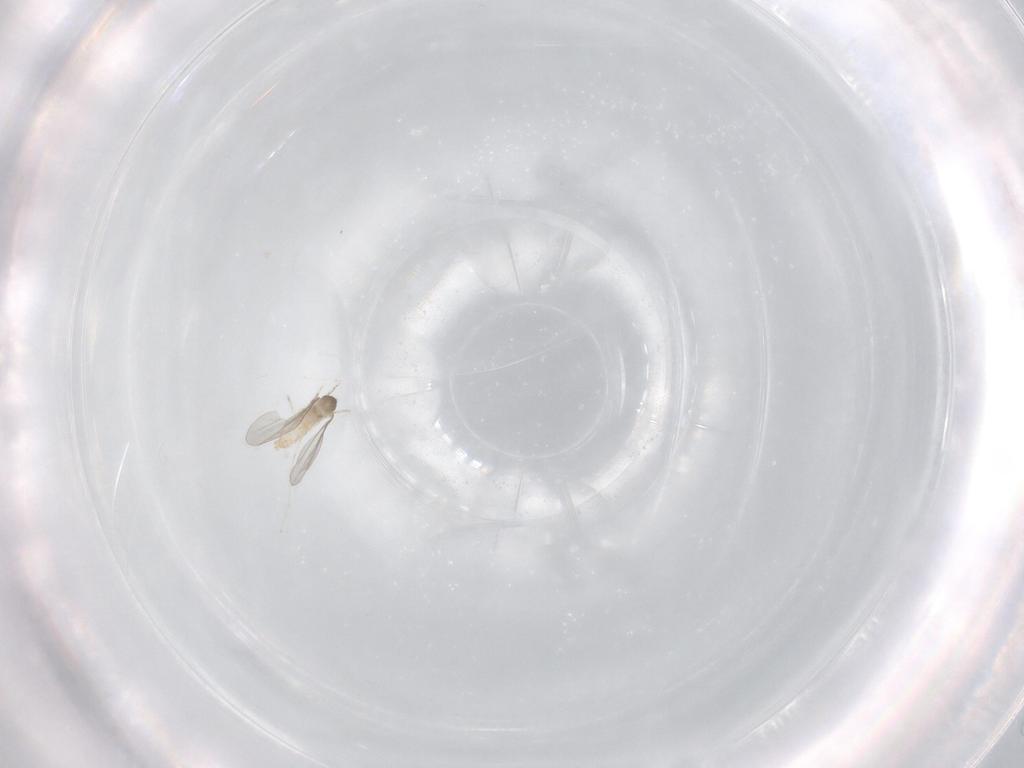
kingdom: Animalia
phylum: Arthropoda
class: Insecta
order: Diptera
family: Cecidomyiidae
